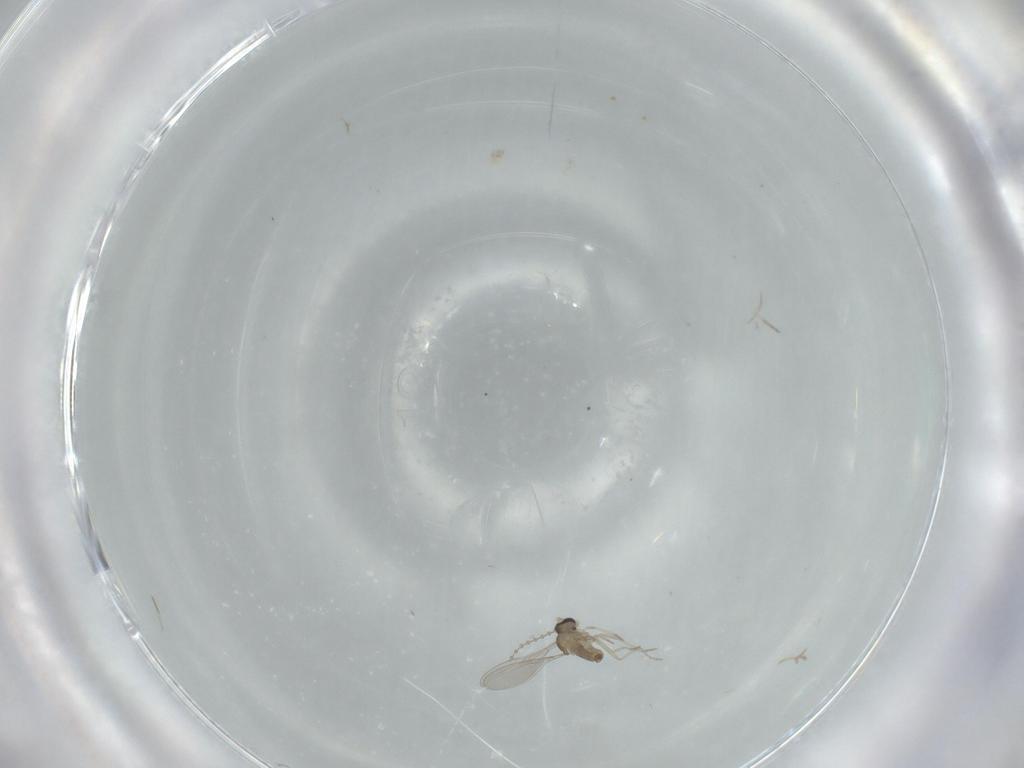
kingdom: Animalia
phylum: Arthropoda
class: Insecta
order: Diptera
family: Cecidomyiidae
